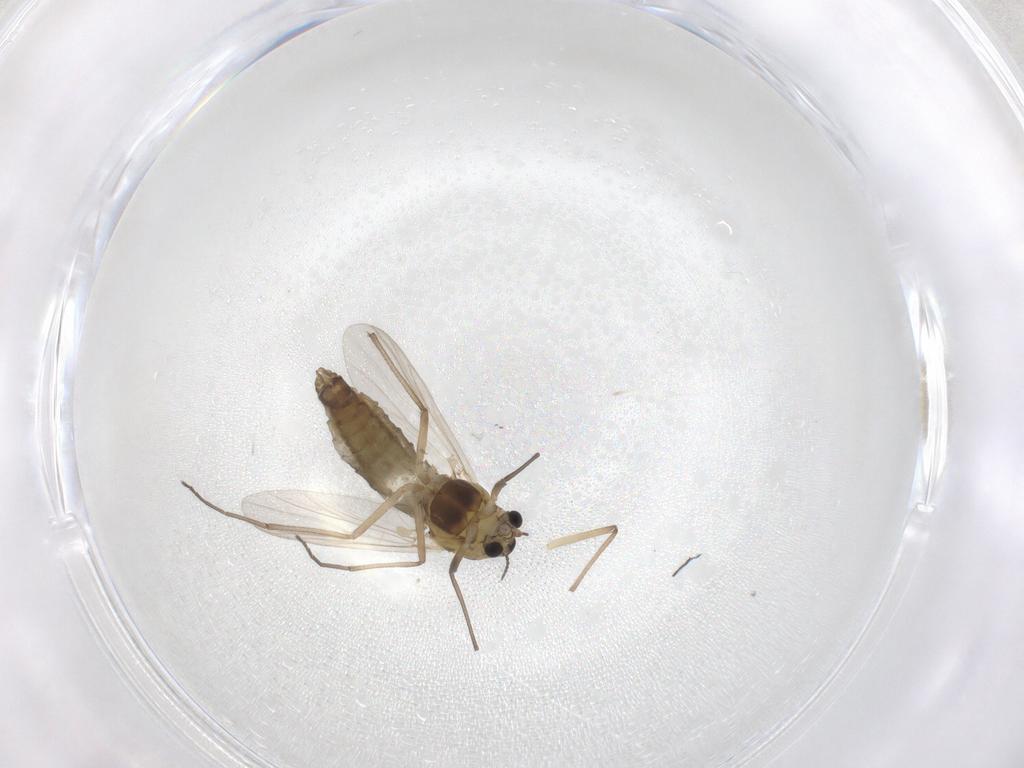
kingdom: Animalia
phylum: Arthropoda
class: Insecta
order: Diptera
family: Chironomidae
